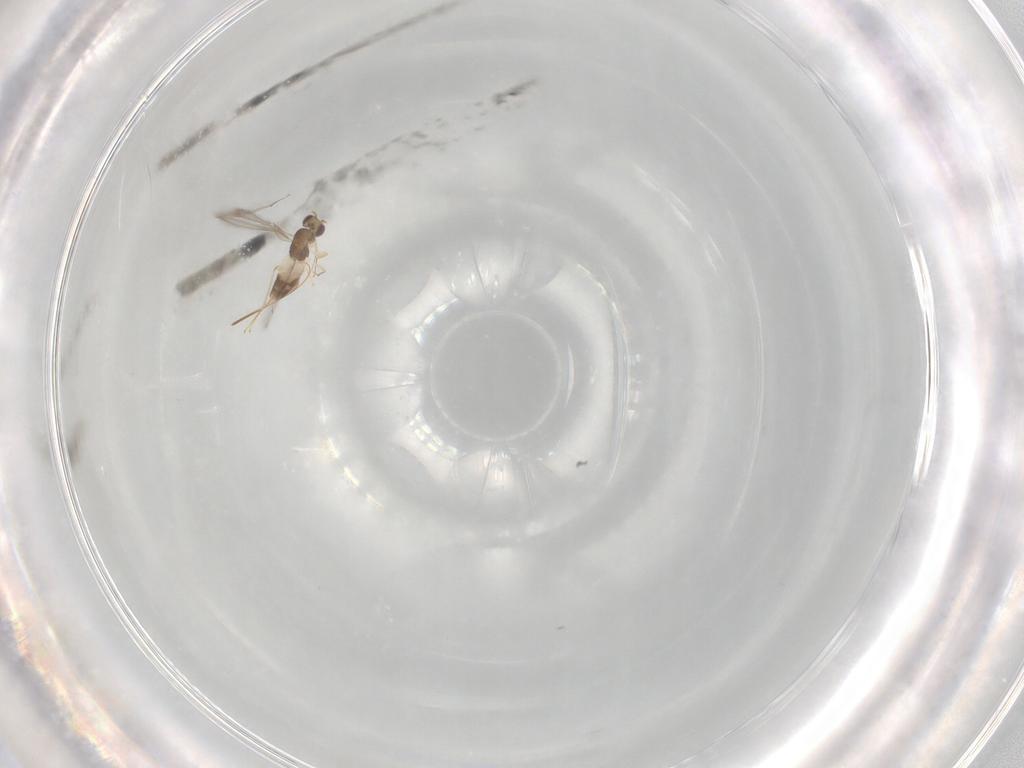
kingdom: Animalia
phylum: Arthropoda
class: Insecta
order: Hymenoptera
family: Mymaridae
